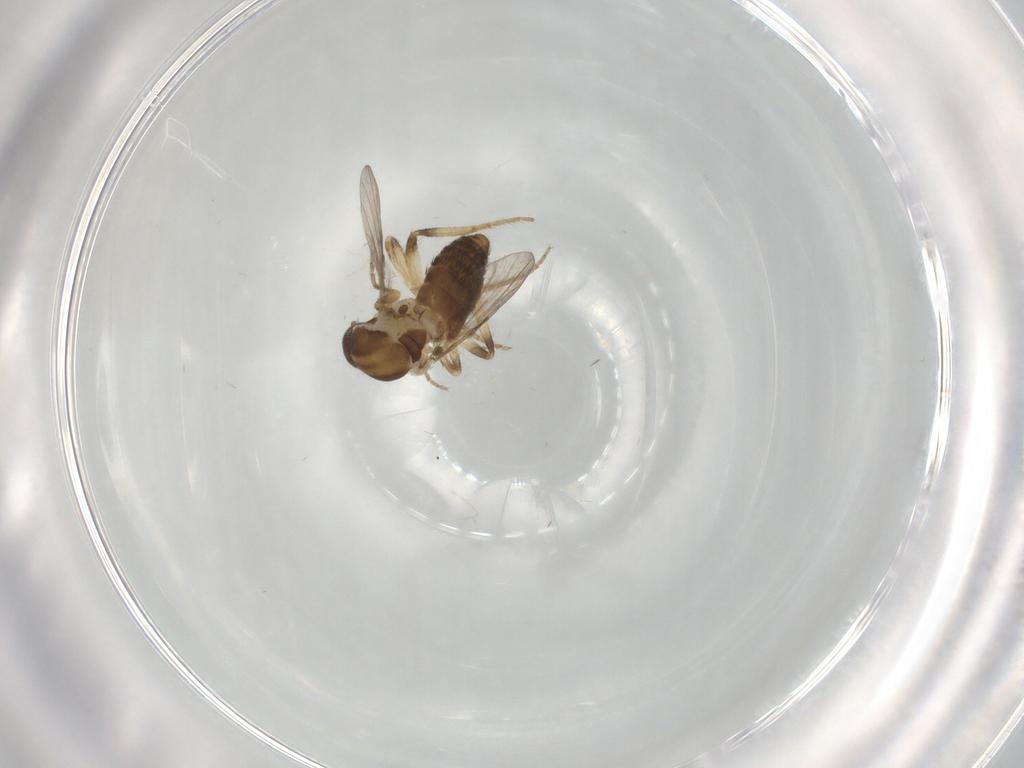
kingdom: Animalia
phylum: Arthropoda
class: Insecta
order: Diptera
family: Ceratopogonidae
